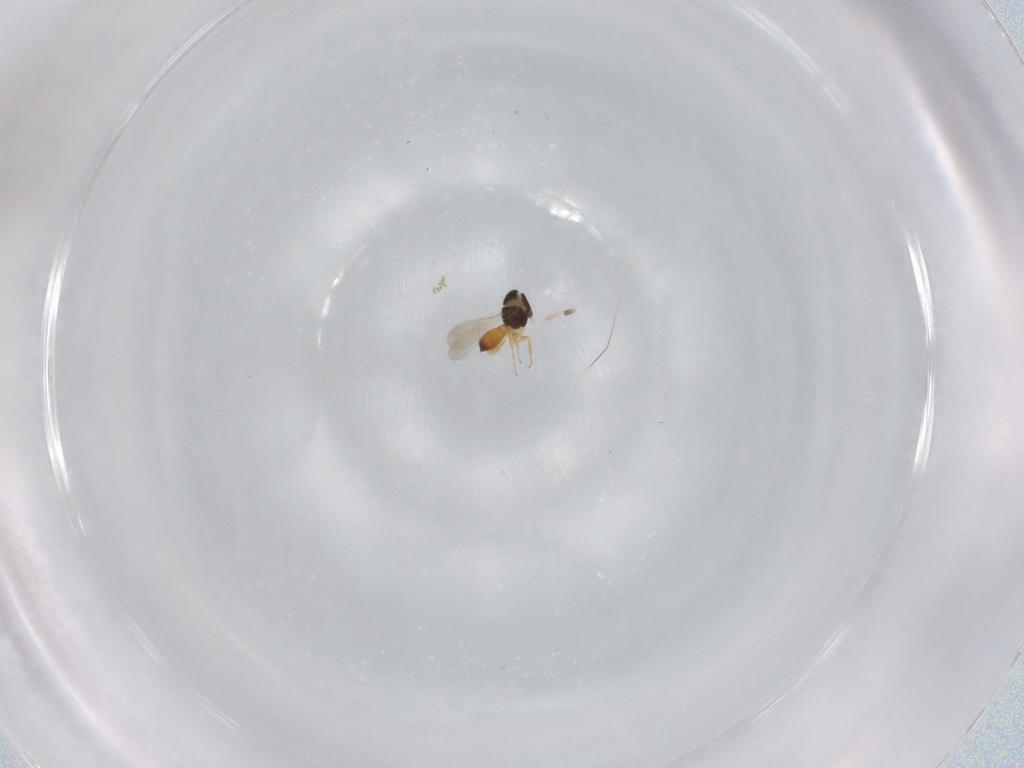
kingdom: Animalia
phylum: Arthropoda
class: Insecta
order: Hymenoptera
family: Scelionidae
